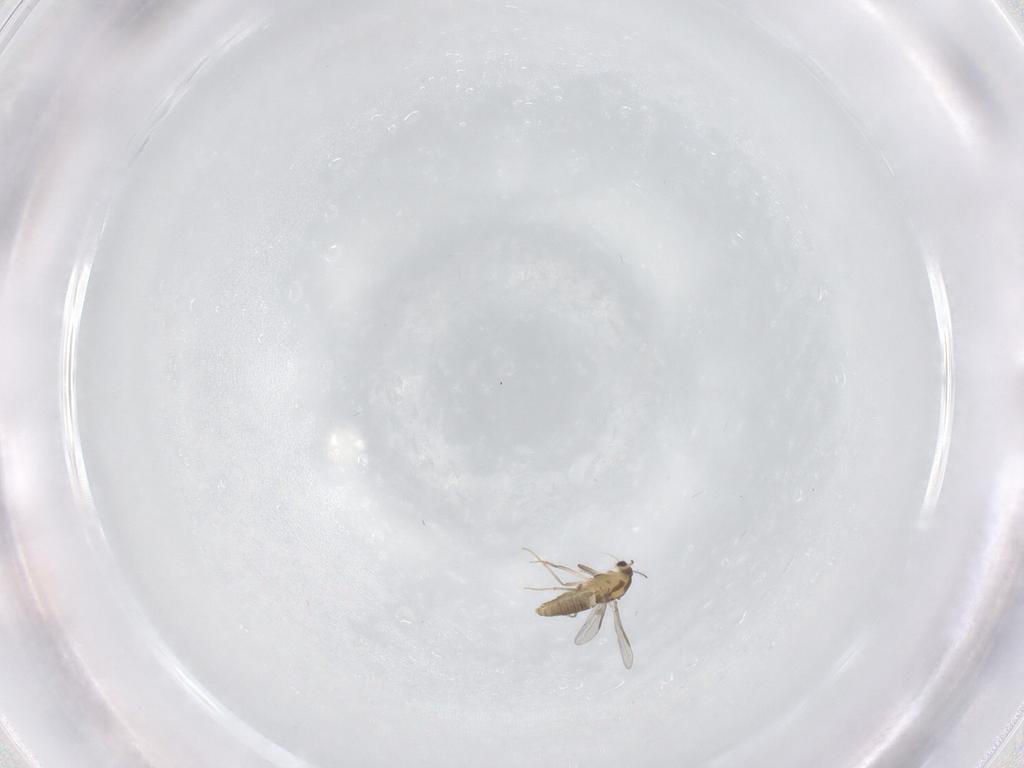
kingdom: Animalia
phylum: Arthropoda
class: Insecta
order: Diptera
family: Chironomidae
